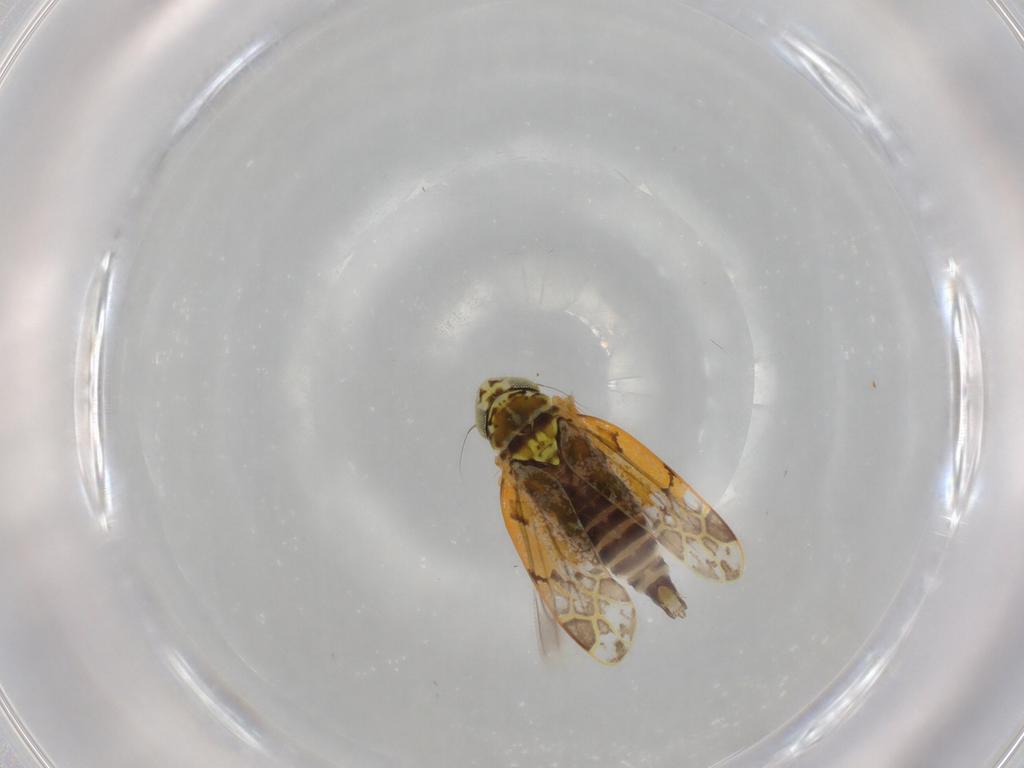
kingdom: Animalia
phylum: Arthropoda
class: Insecta
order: Hemiptera
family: Cicadellidae
